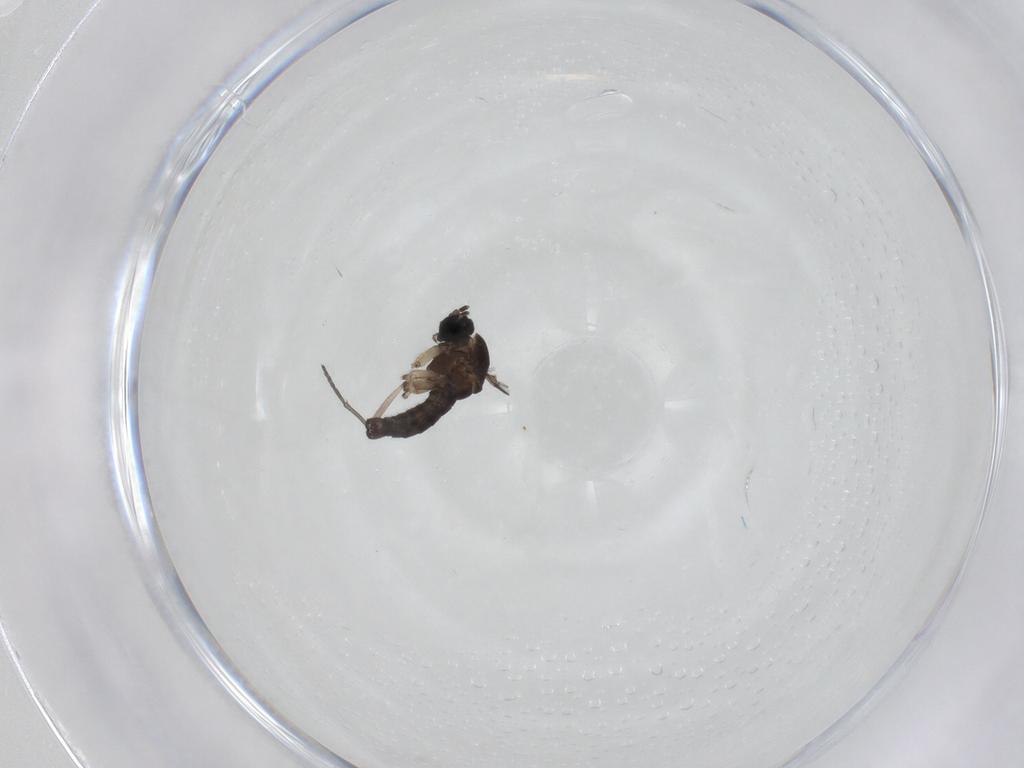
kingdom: Animalia
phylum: Arthropoda
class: Insecta
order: Diptera
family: Sciaridae
